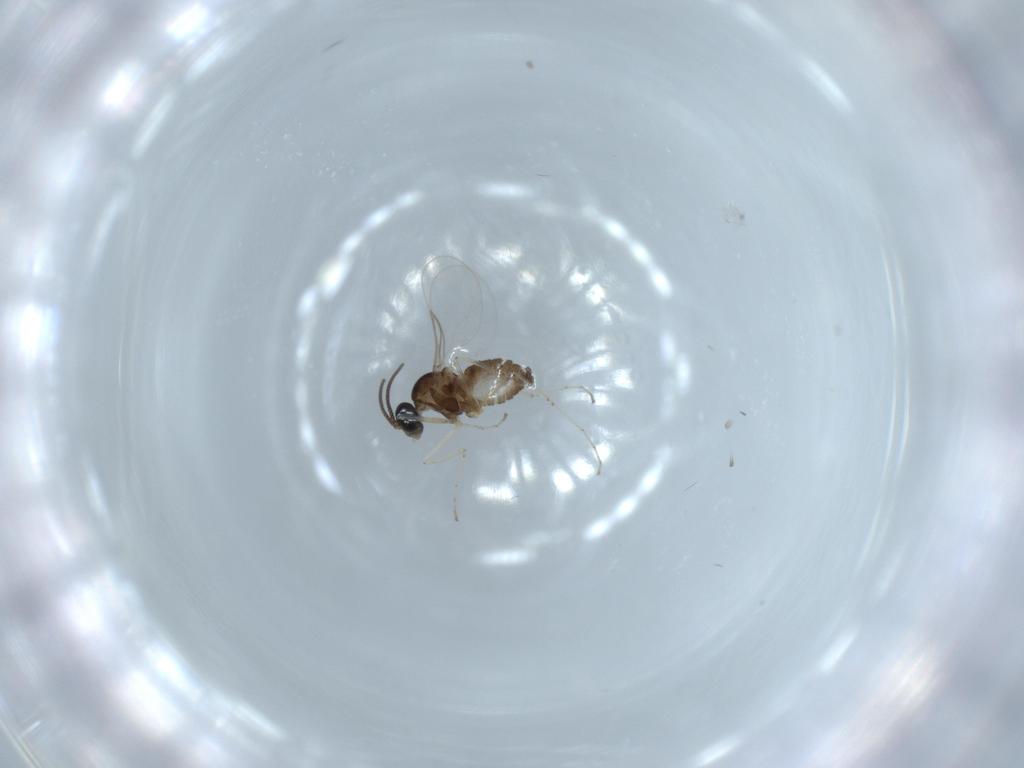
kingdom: Animalia
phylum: Arthropoda
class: Insecta
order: Diptera
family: Cecidomyiidae
